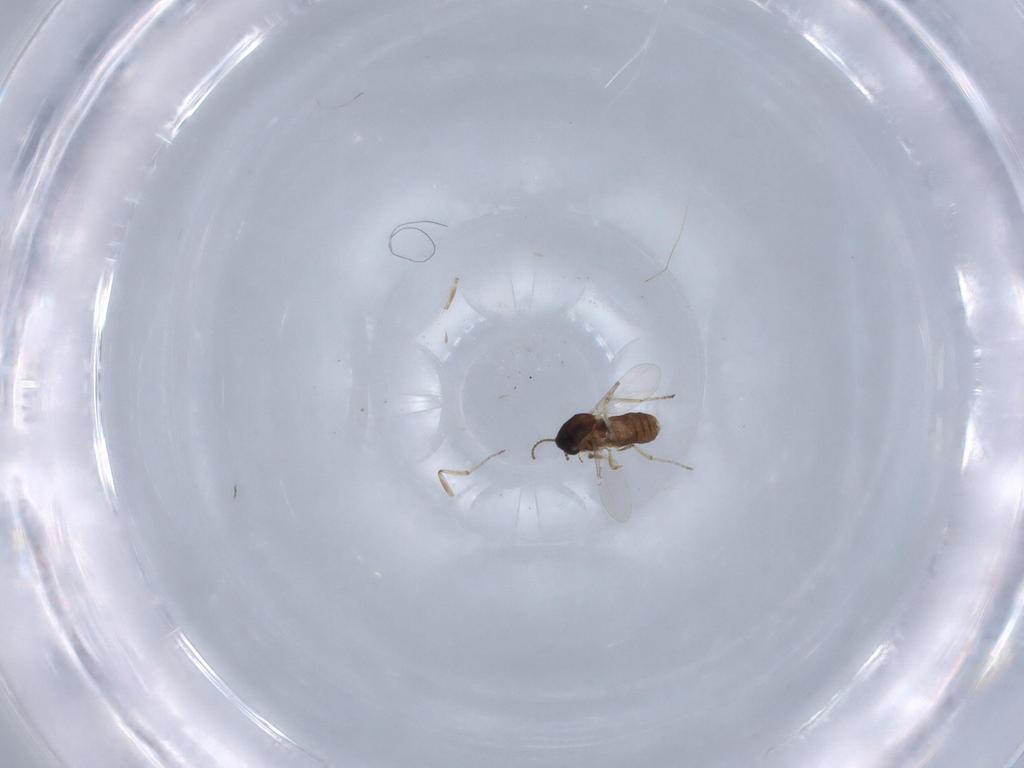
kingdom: Animalia
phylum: Arthropoda
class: Insecta
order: Diptera
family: Ceratopogonidae
